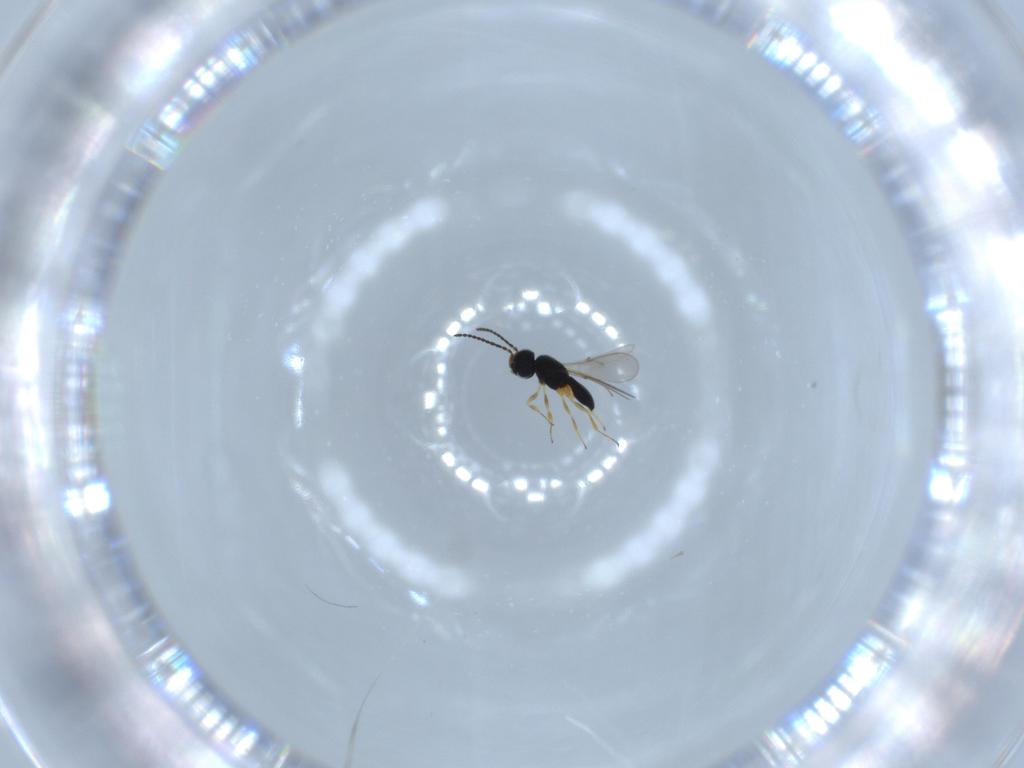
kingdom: Animalia
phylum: Arthropoda
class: Insecta
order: Hymenoptera
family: Scelionidae
